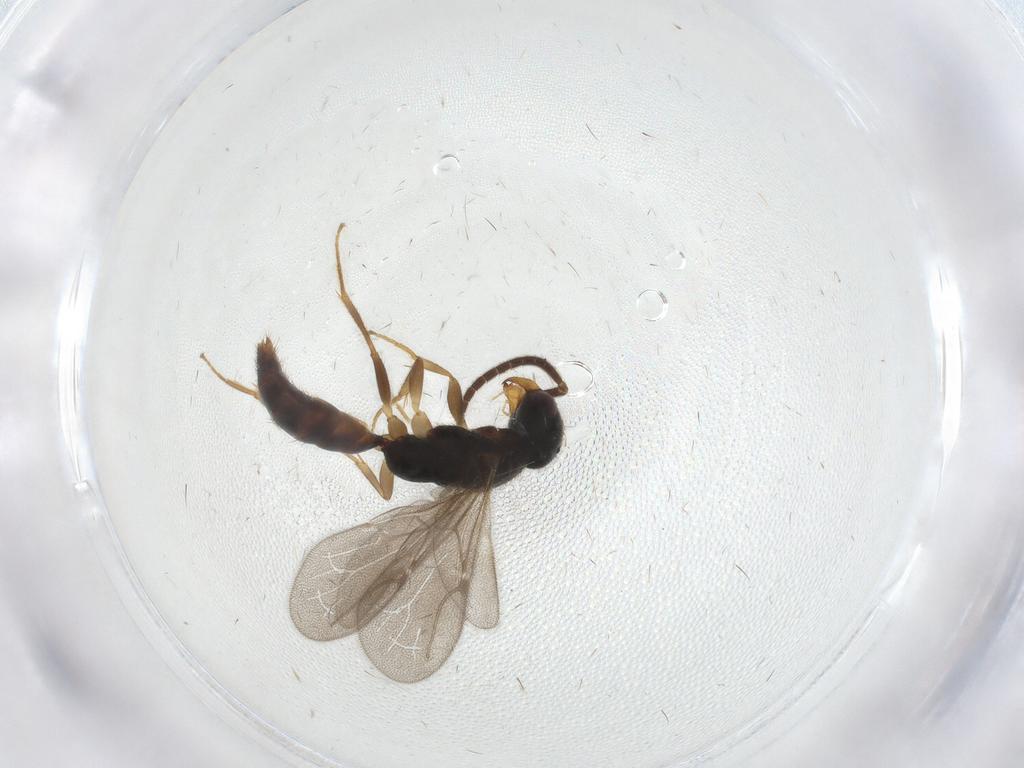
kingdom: Animalia
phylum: Arthropoda
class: Insecta
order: Hymenoptera
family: Bethylidae
